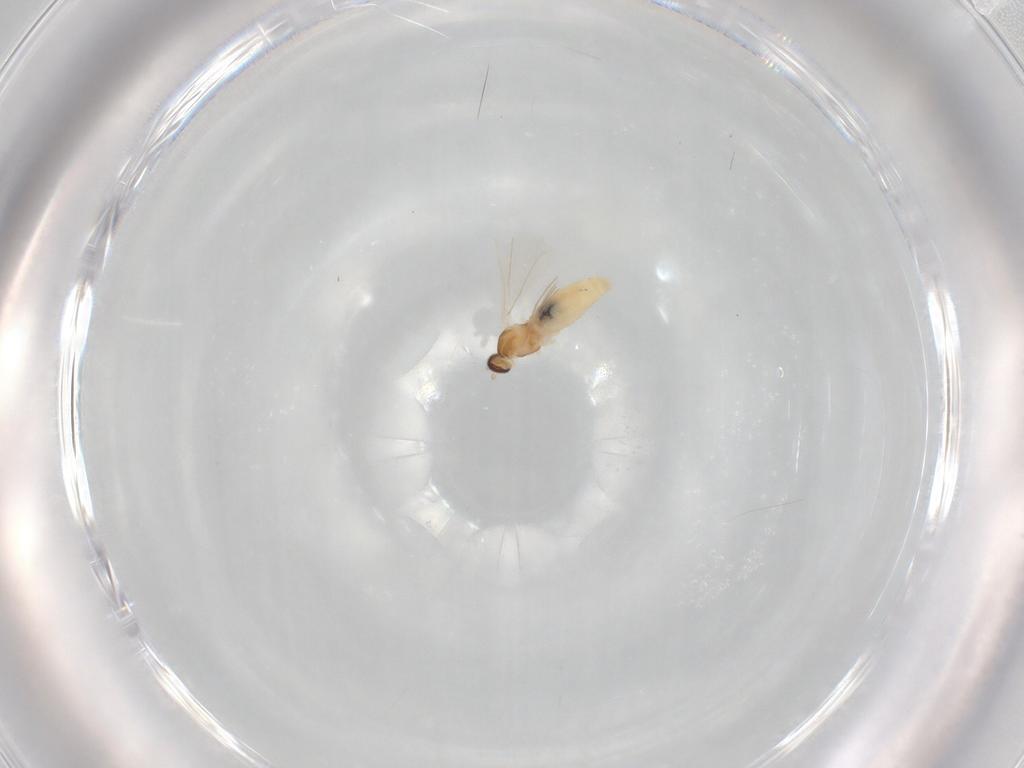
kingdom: Animalia
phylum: Arthropoda
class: Insecta
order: Diptera
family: Cecidomyiidae
